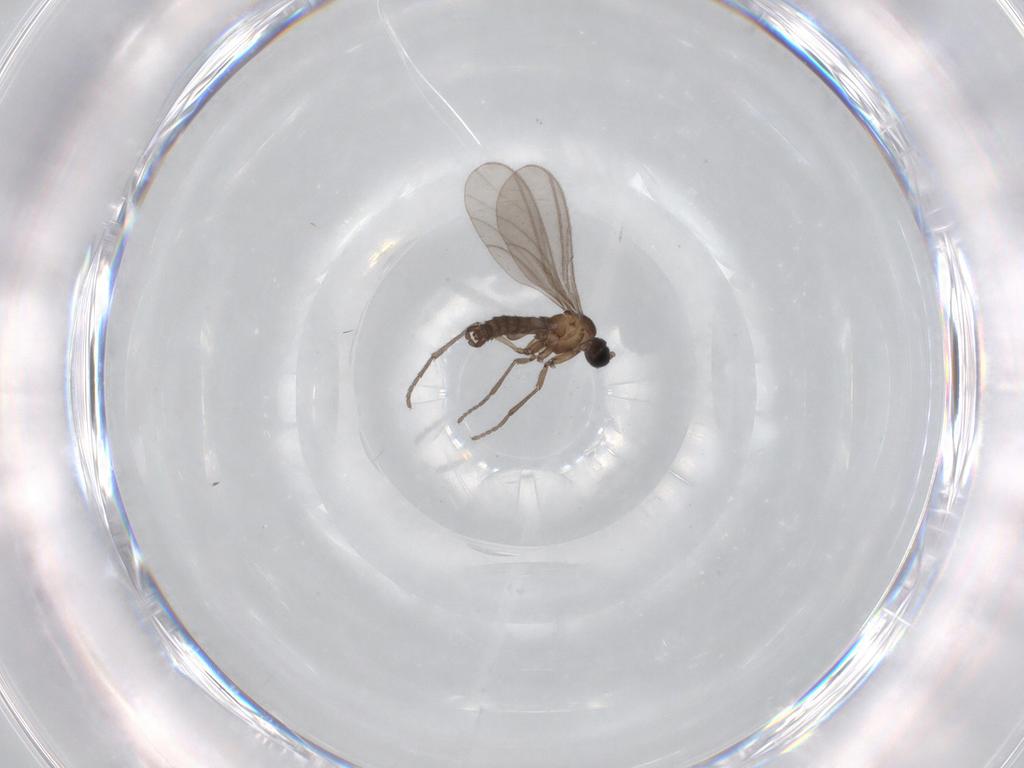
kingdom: Animalia
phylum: Arthropoda
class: Insecta
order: Diptera
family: Sciaridae
